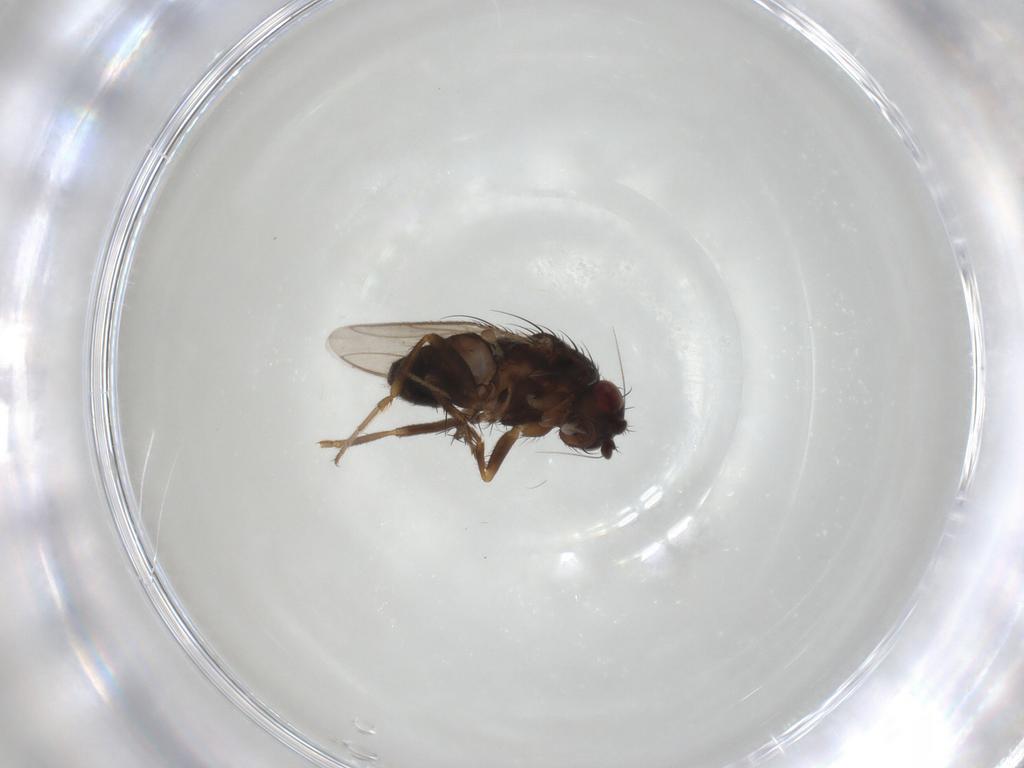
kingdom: Animalia
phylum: Arthropoda
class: Insecta
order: Diptera
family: Sphaeroceridae
